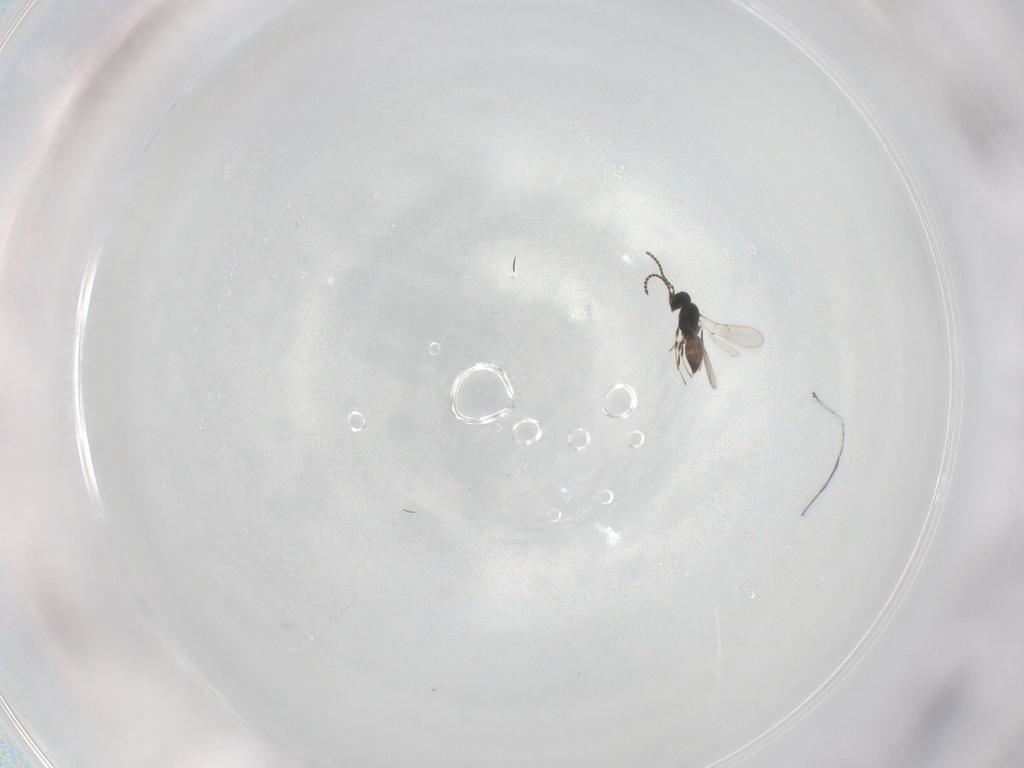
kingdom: Animalia
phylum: Arthropoda
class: Insecta
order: Hymenoptera
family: Scelionidae
